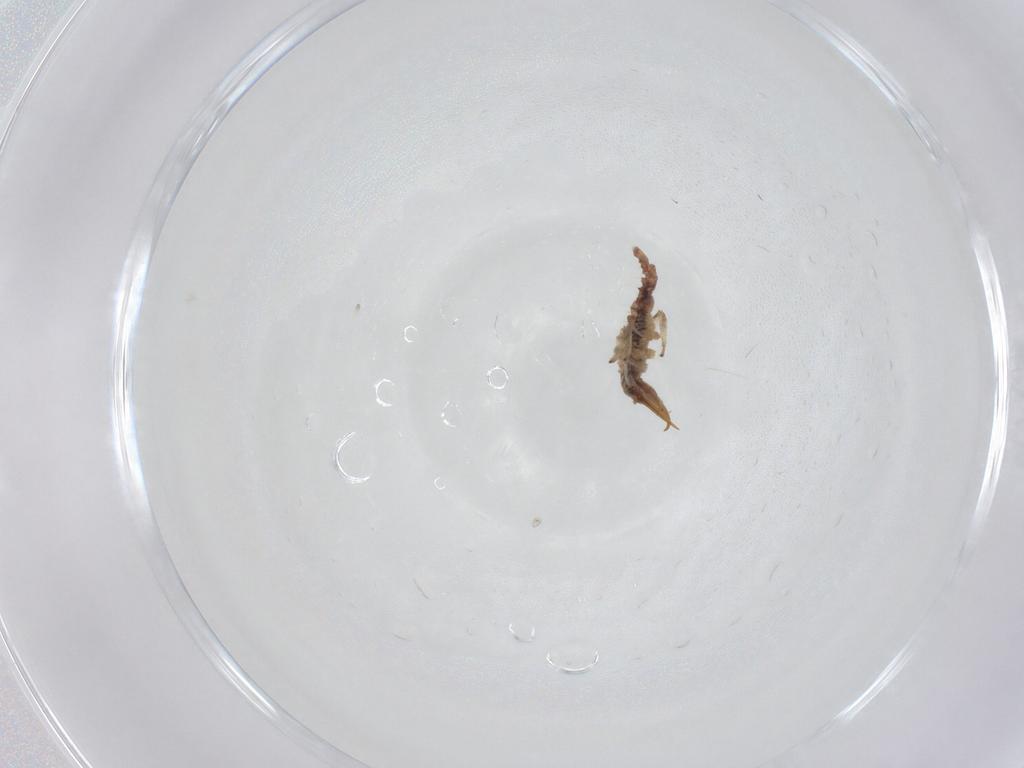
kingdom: Animalia
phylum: Arthropoda
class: Insecta
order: Neuroptera
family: Chrysopidae
